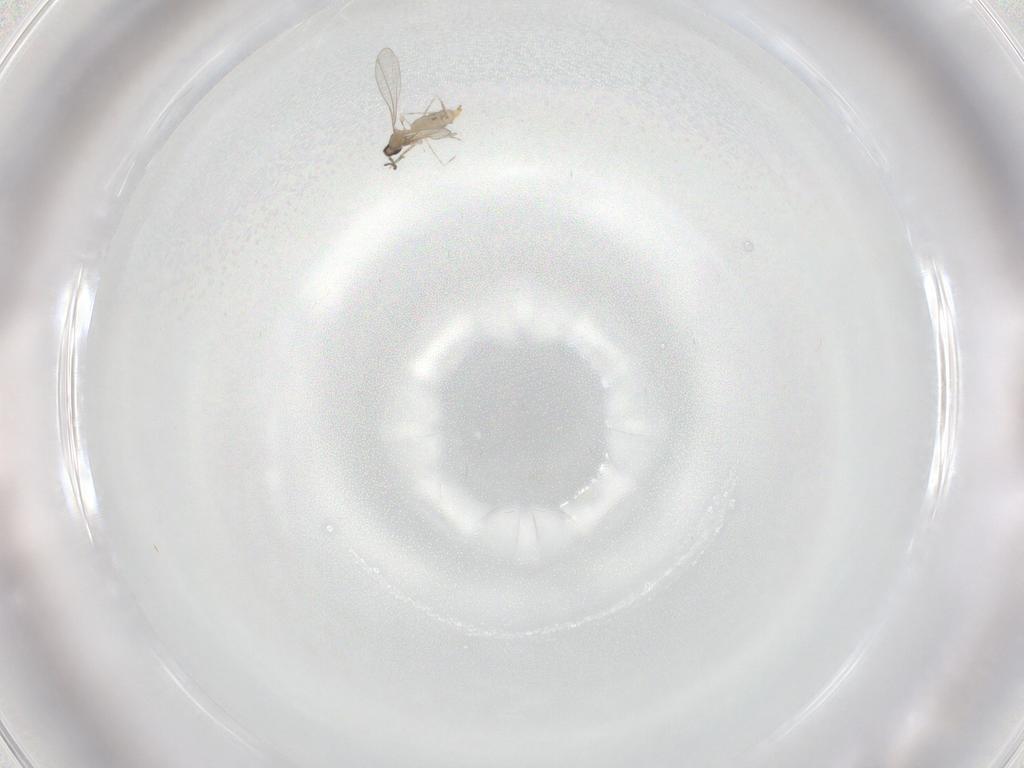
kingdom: Animalia
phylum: Arthropoda
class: Insecta
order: Diptera
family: Cecidomyiidae
